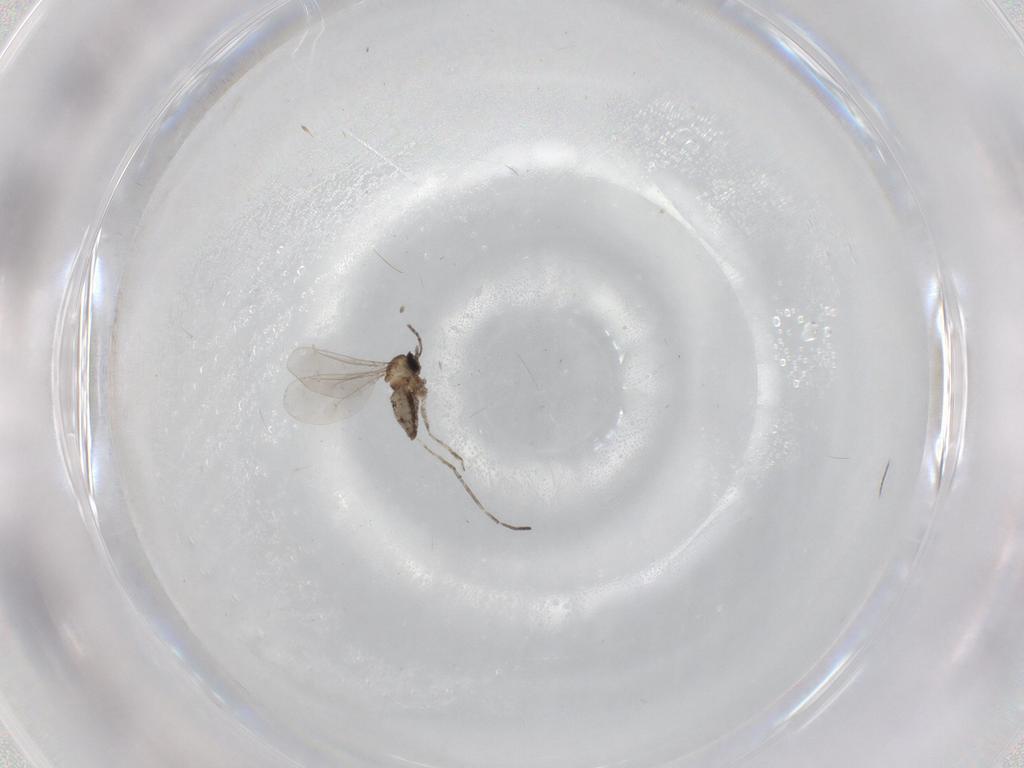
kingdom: Animalia
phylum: Arthropoda
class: Insecta
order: Diptera
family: Cecidomyiidae
